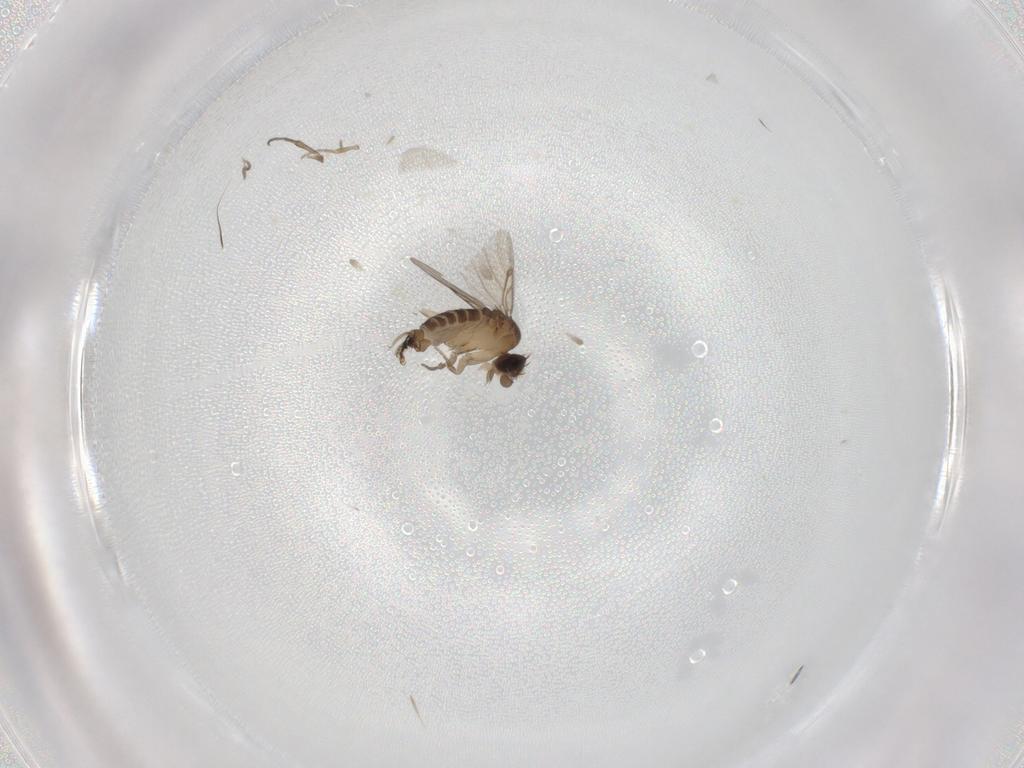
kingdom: Animalia
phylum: Arthropoda
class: Insecta
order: Diptera
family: Phoridae
